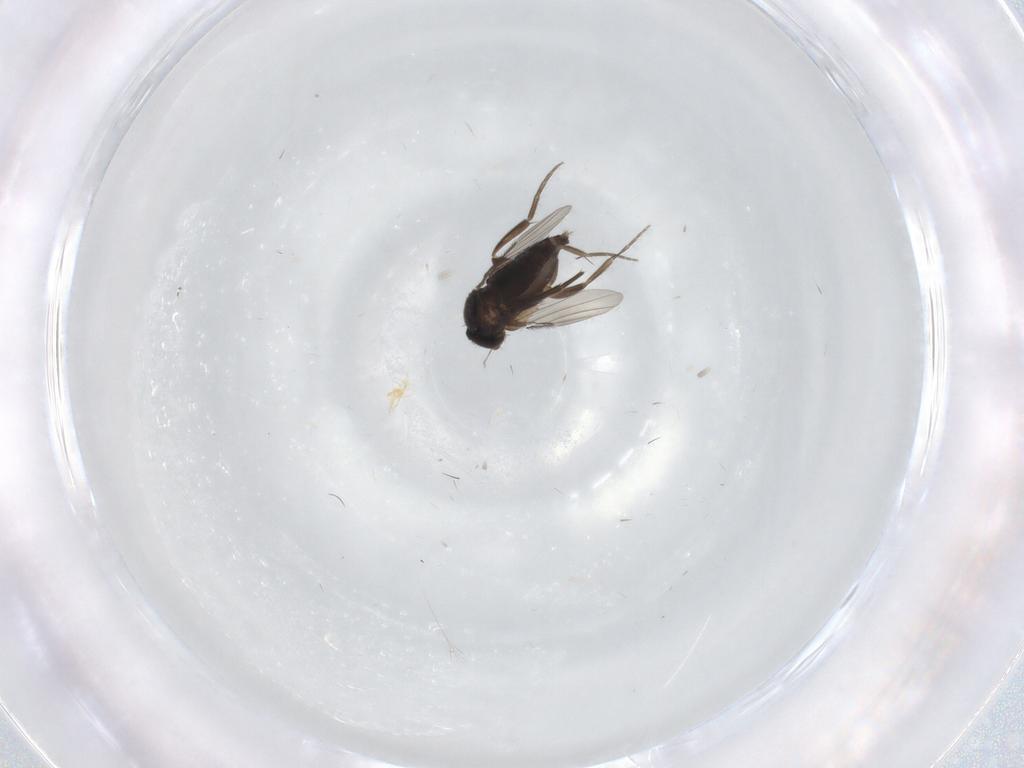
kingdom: Animalia
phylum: Arthropoda
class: Insecta
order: Diptera
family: Phoridae
